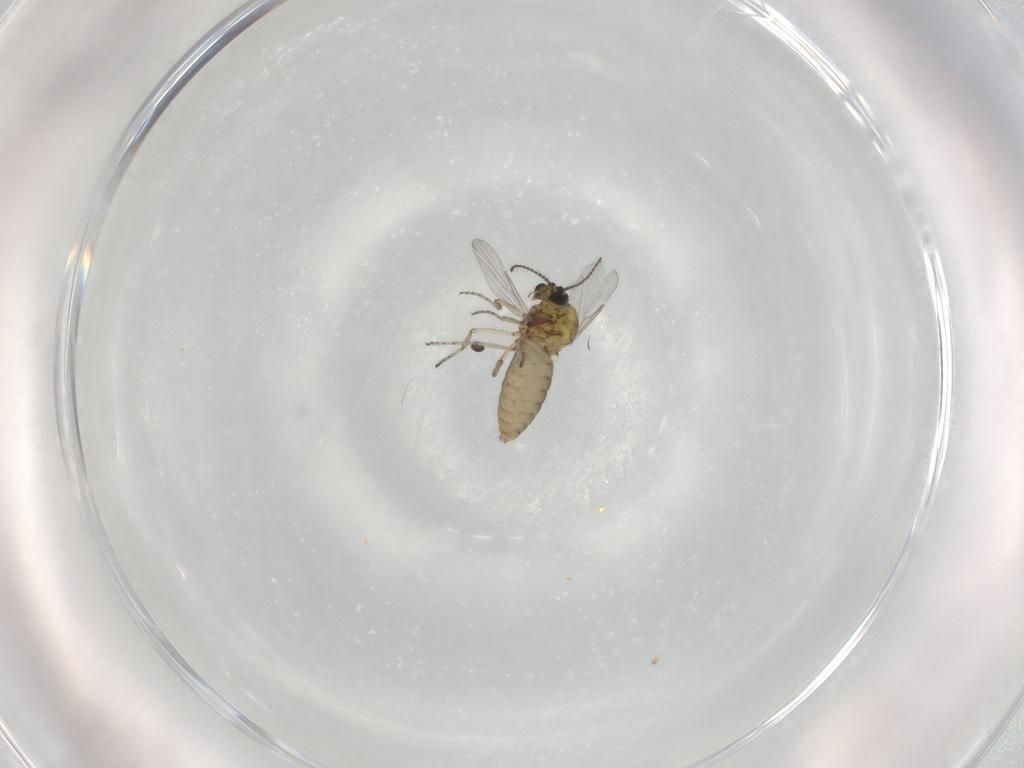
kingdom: Animalia
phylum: Arthropoda
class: Insecta
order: Diptera
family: Ceratopogonidae
